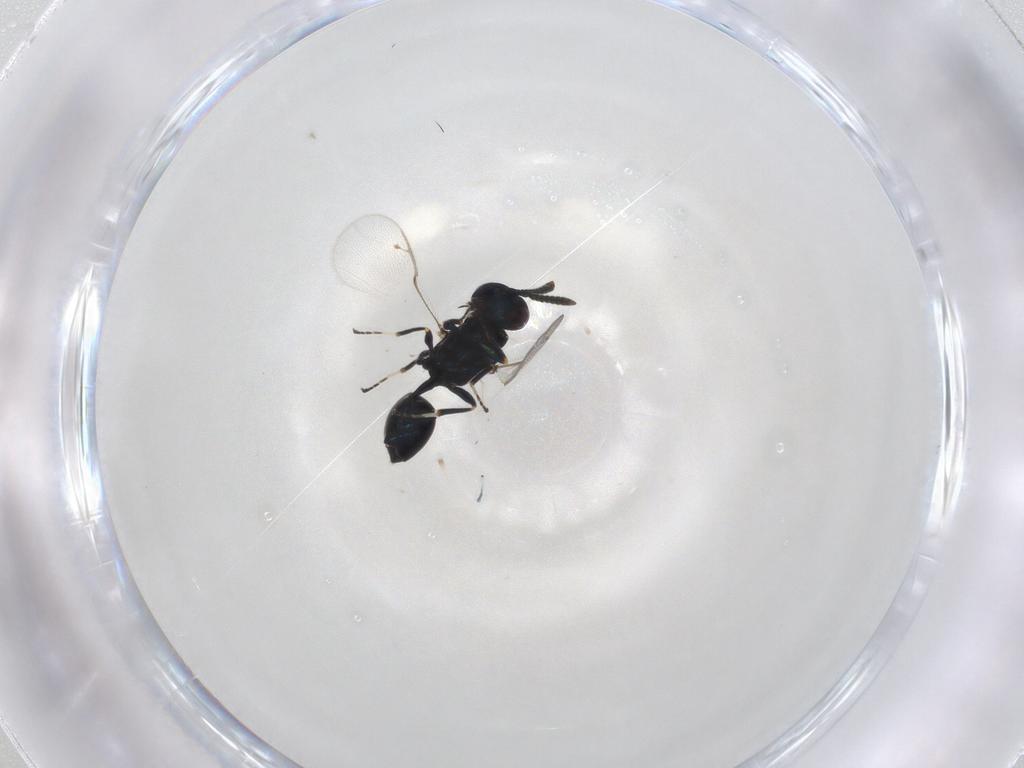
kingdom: Animalia
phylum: Arthropoda
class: Insecta
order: Hymenoptera
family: Pteromalidae
